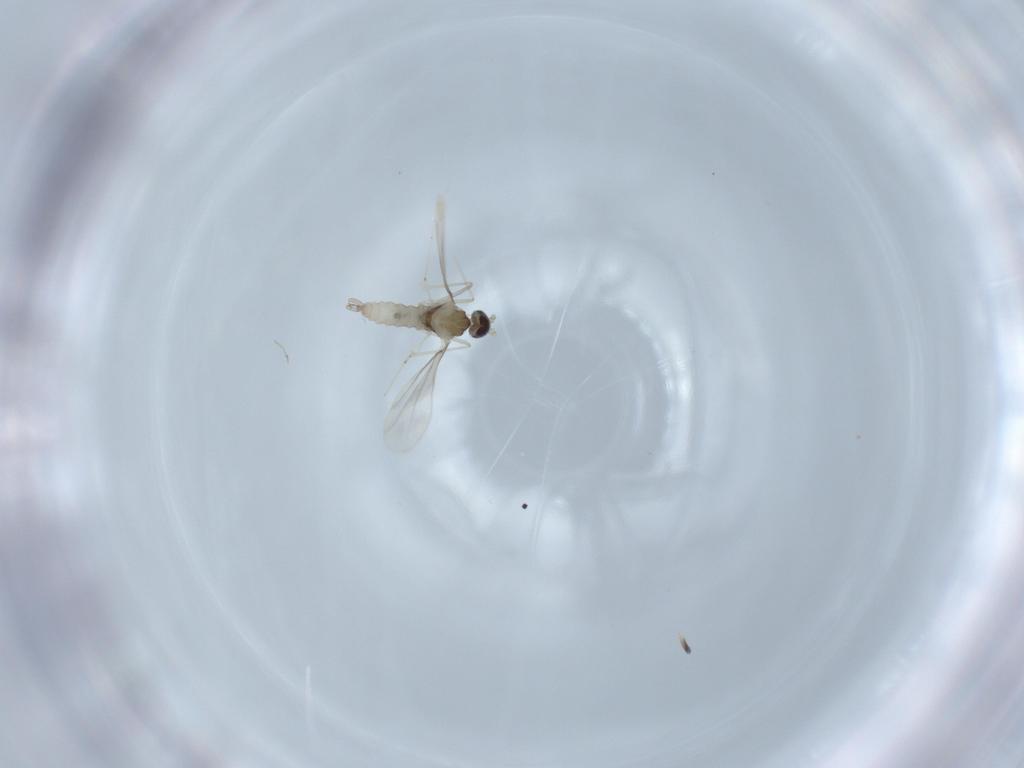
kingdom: Animalia
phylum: Arthropoda
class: Insecta
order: Diptera
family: Cecidomyiidae
